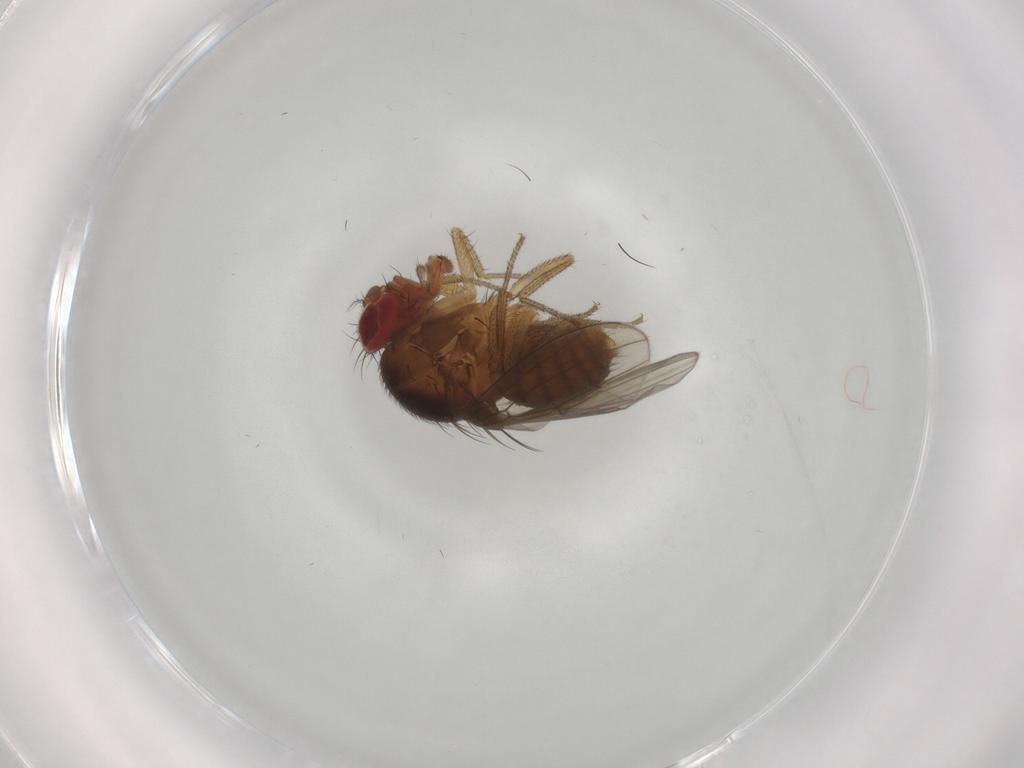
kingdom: Animalia
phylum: Arthropoda
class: Insecta
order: Diptera
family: Drosophilidae
